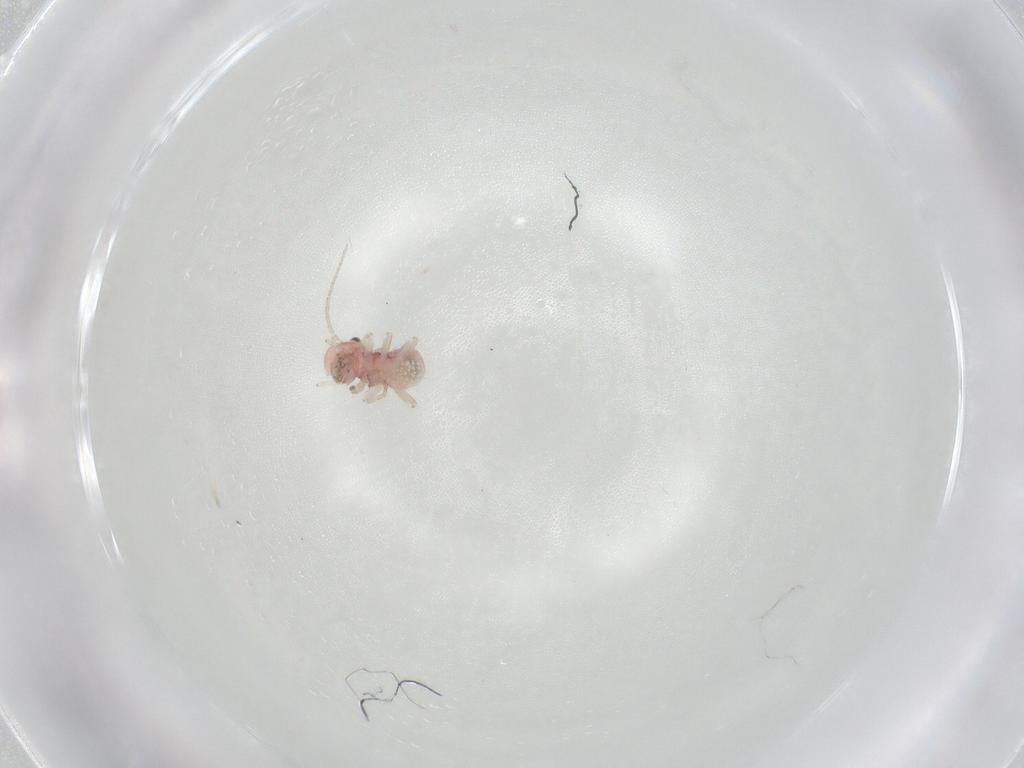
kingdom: Animalia
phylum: Arthropoda
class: Insecta
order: Psocodea
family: Caeciliusidae
